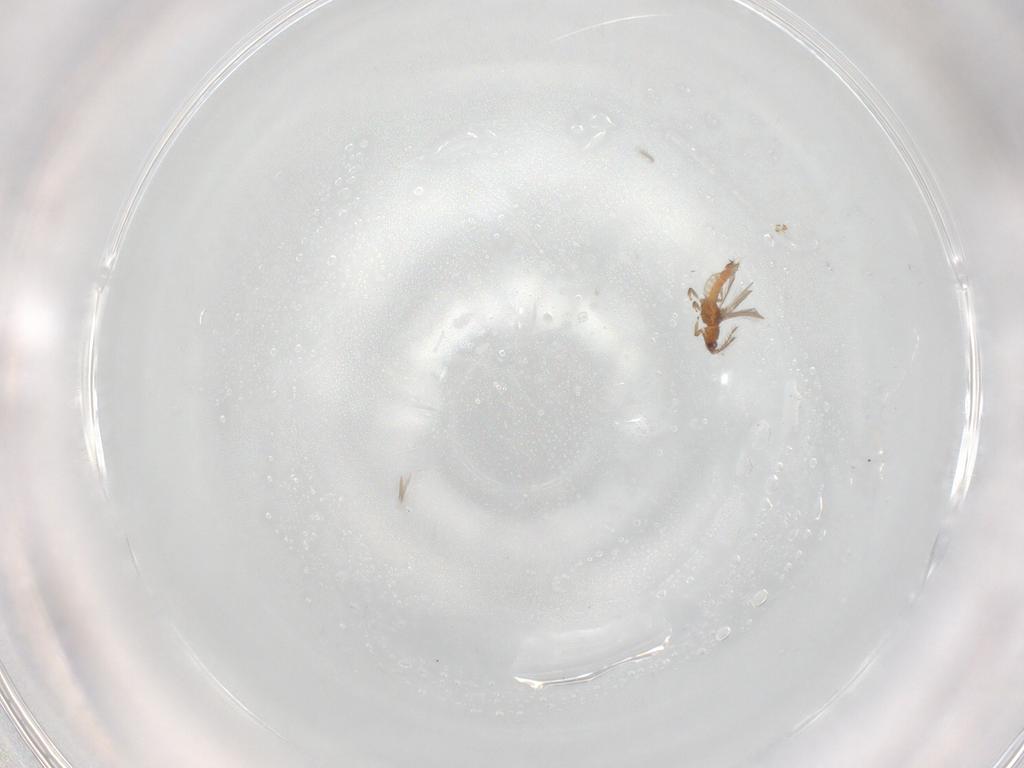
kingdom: Animalia
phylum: Arthropoda
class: Insecta
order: Thysanoptera
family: Thripidae
